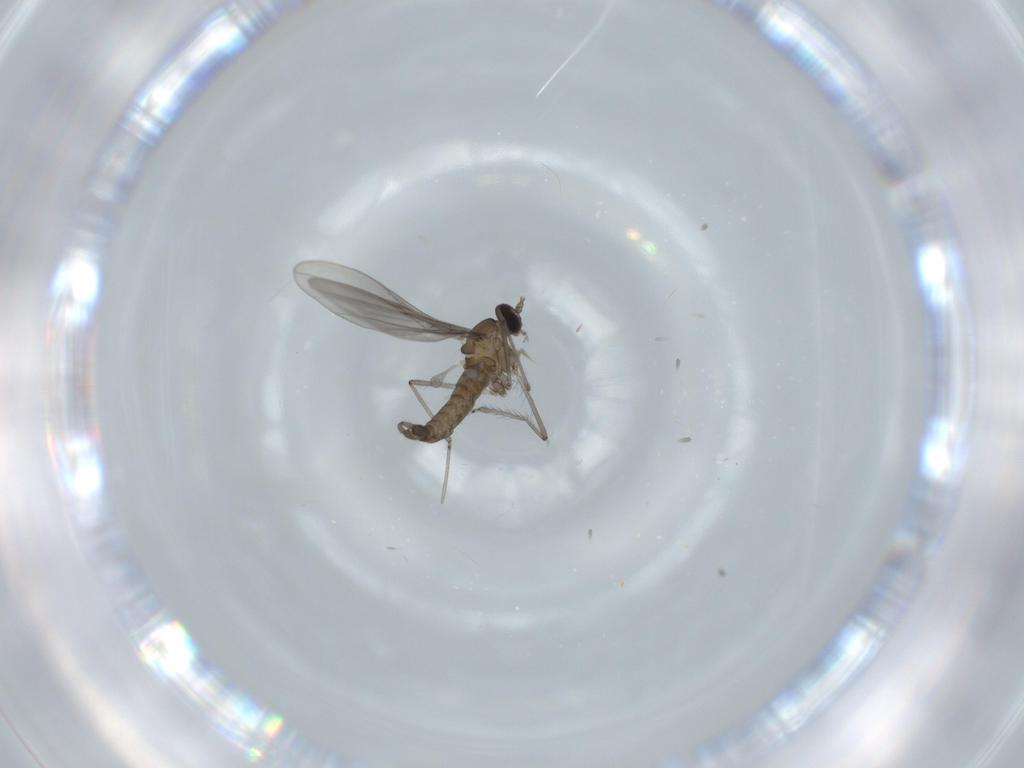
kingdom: Animalia
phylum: Arthropoda
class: Insecta
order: Diptera
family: Cecidomyiidae
